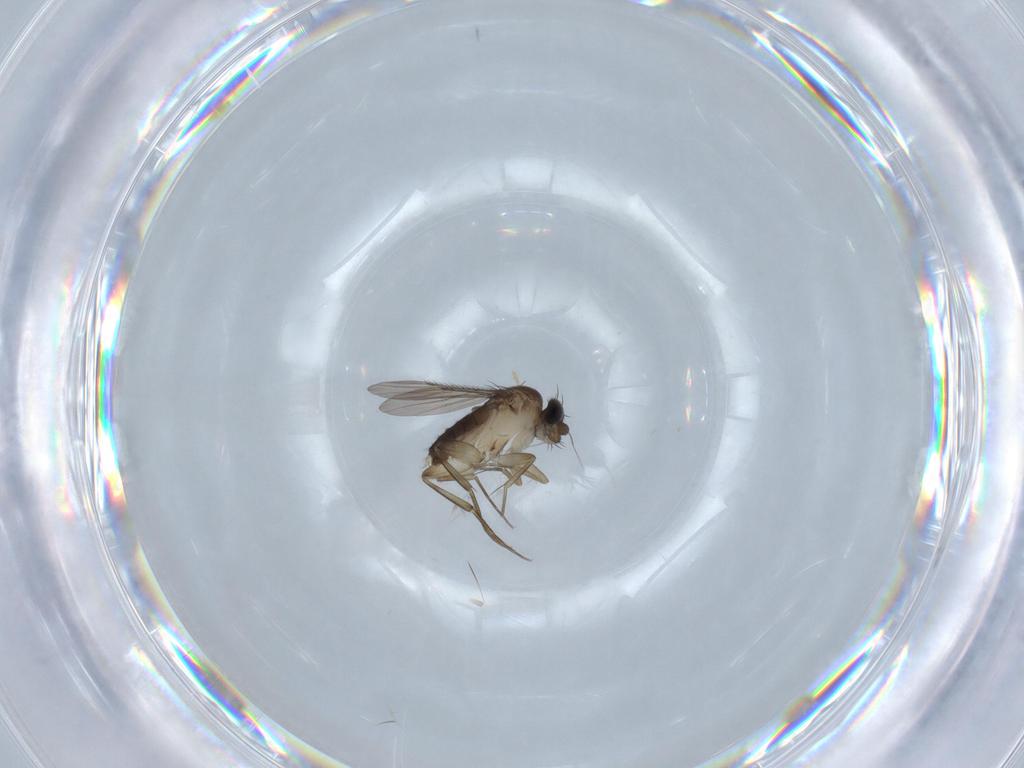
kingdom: Animalia
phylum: Arthropoda
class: Insecta
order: Diptera
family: Phoridae
